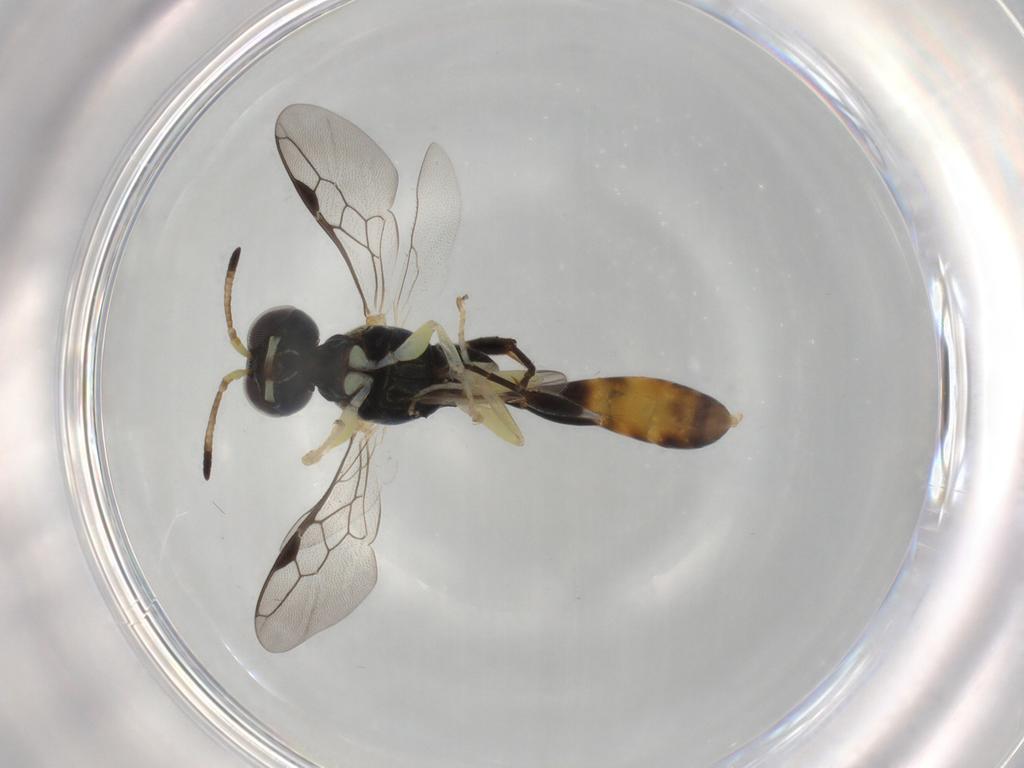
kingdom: Animalia
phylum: Arthropoda
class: Insecta
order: Hymenoptera
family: Crabronidae
